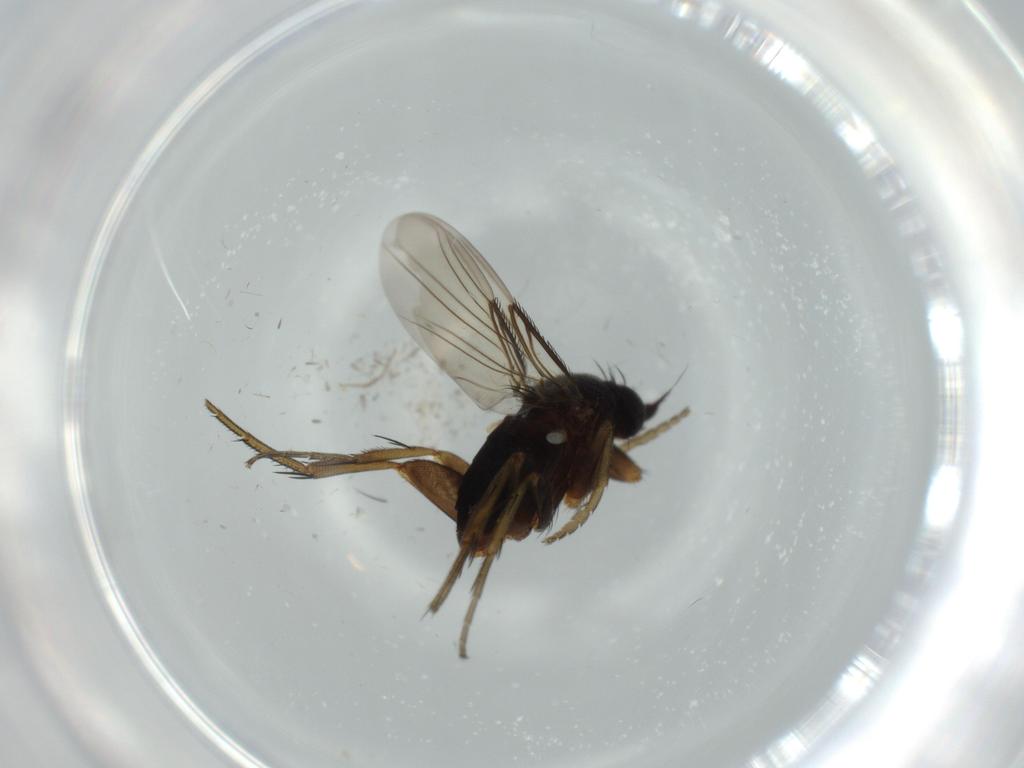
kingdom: Animalia
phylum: Arthropoda
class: Insecta
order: Diptera
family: Phoridae
